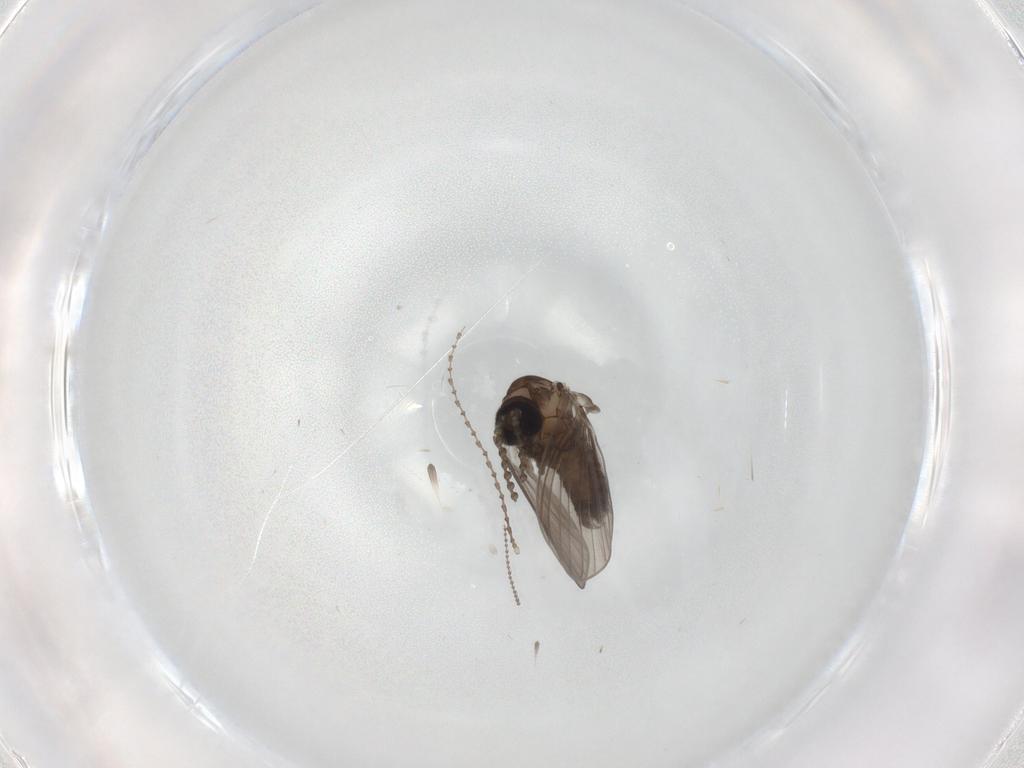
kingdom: Animalia
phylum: Arthropoda
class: Insecta
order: Diptera
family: Psychodidae
